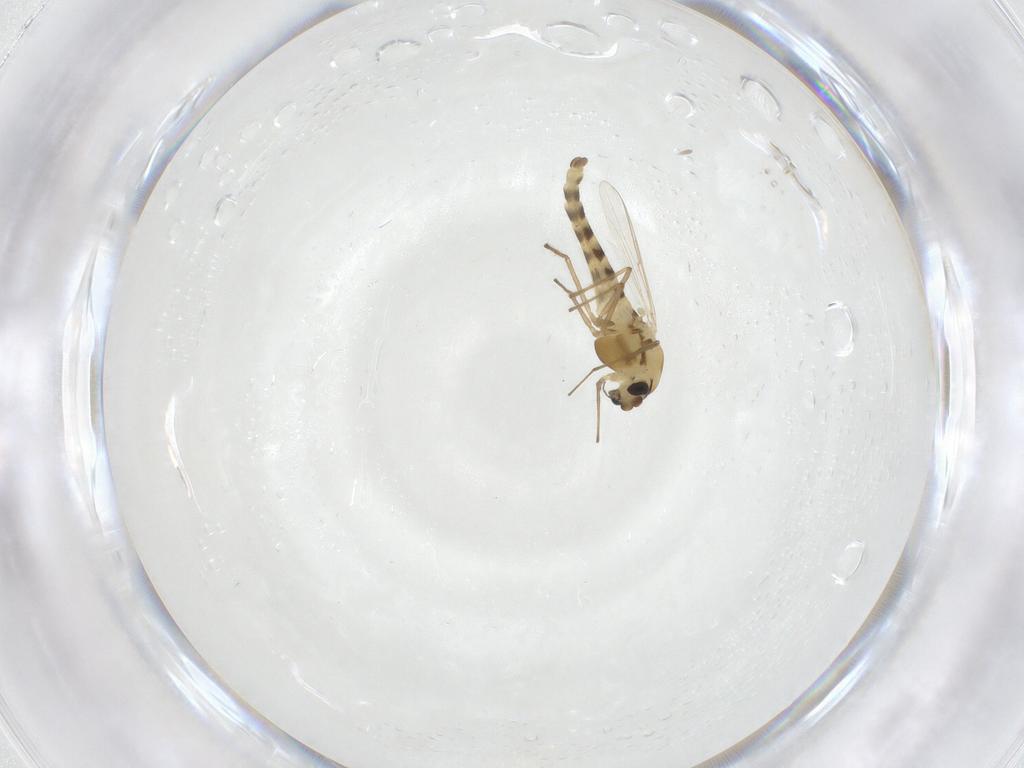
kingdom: Animalia
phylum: Arthropoda
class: Insecta
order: Diptera
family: Chironomidae
